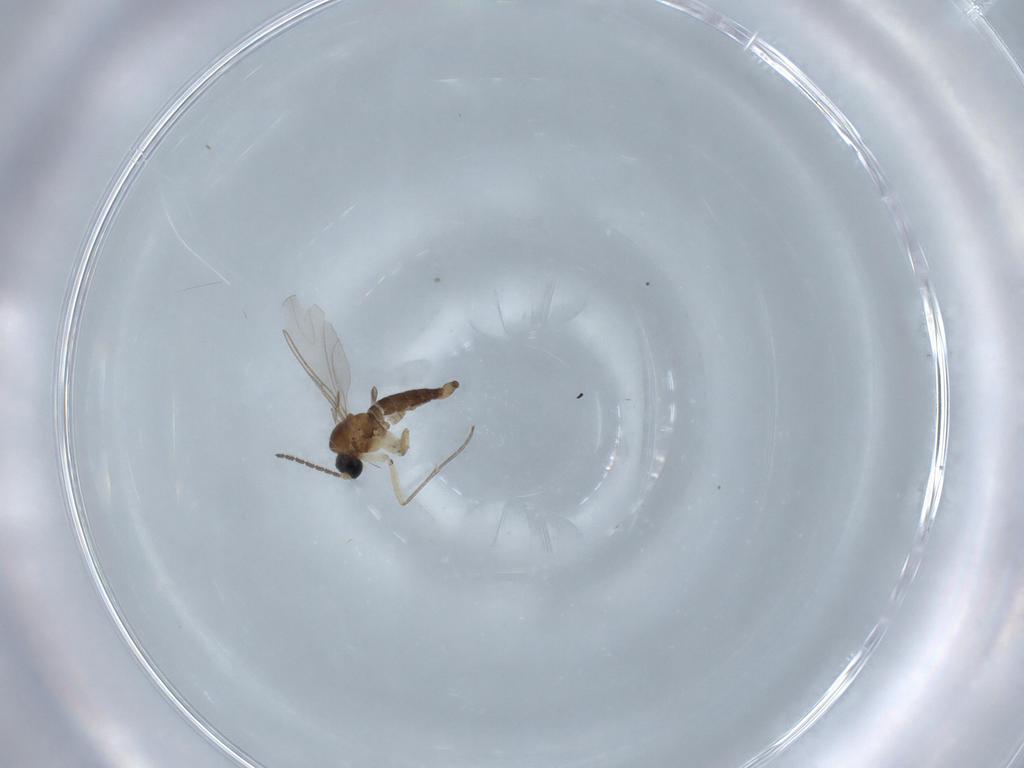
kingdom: Animalia
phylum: Arthropoda
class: Insecta
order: Diptera
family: Sciaridae
